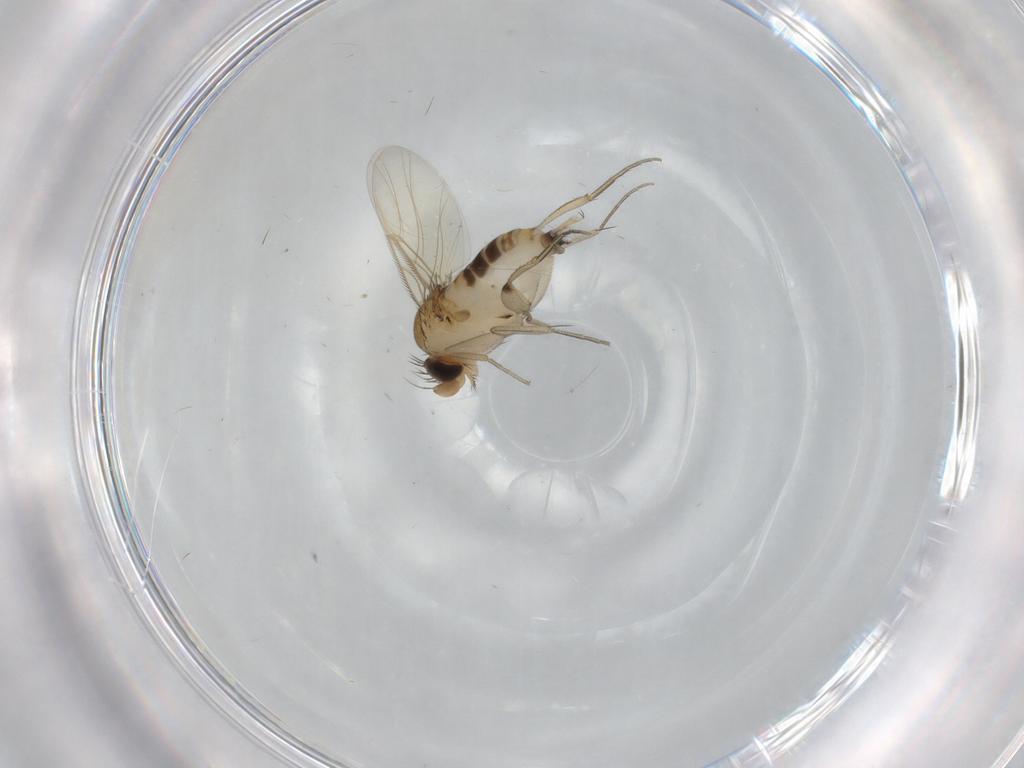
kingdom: Animalia
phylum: Arthropoda
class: Insecta
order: Diptera
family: Phoridae
